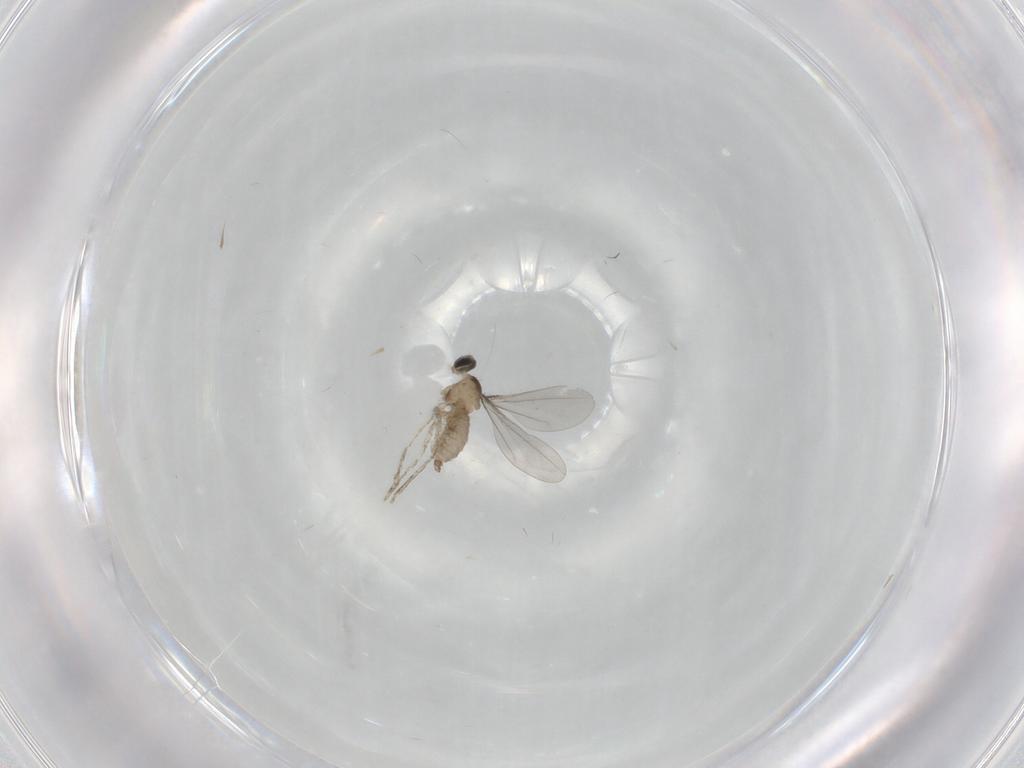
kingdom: Animalia
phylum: Arthropoda
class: Insecta
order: Diptera
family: Cecidomyiidae
